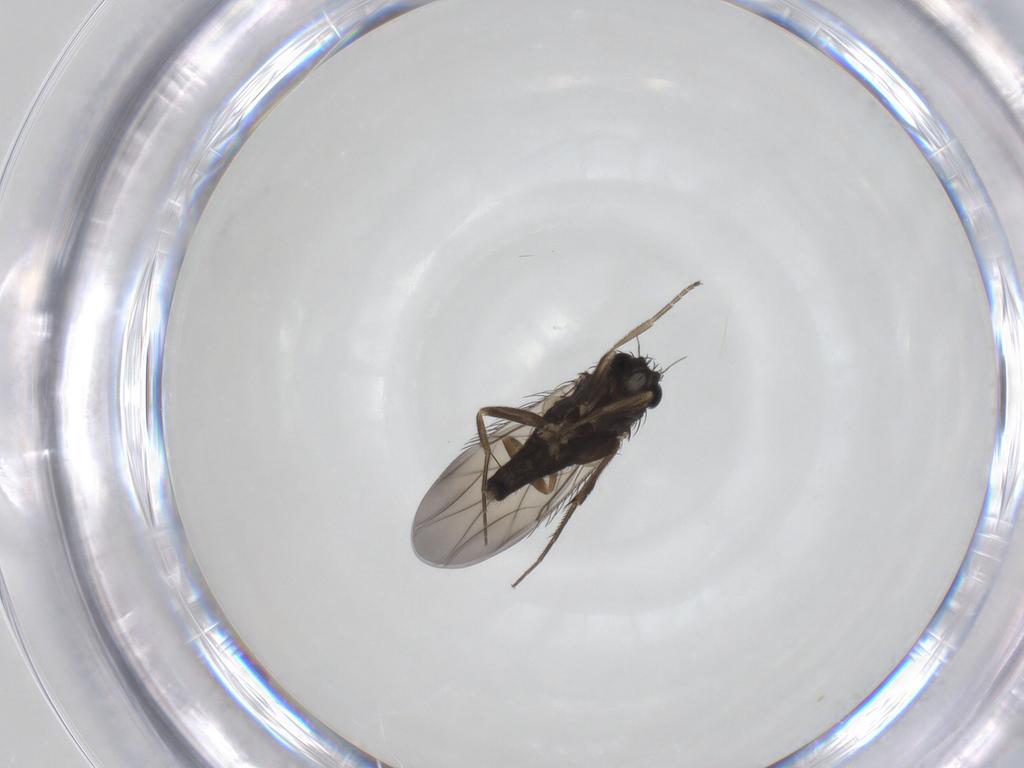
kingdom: Animalia
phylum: Arthropoda
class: Insecta
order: Diptera
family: Phoridae
